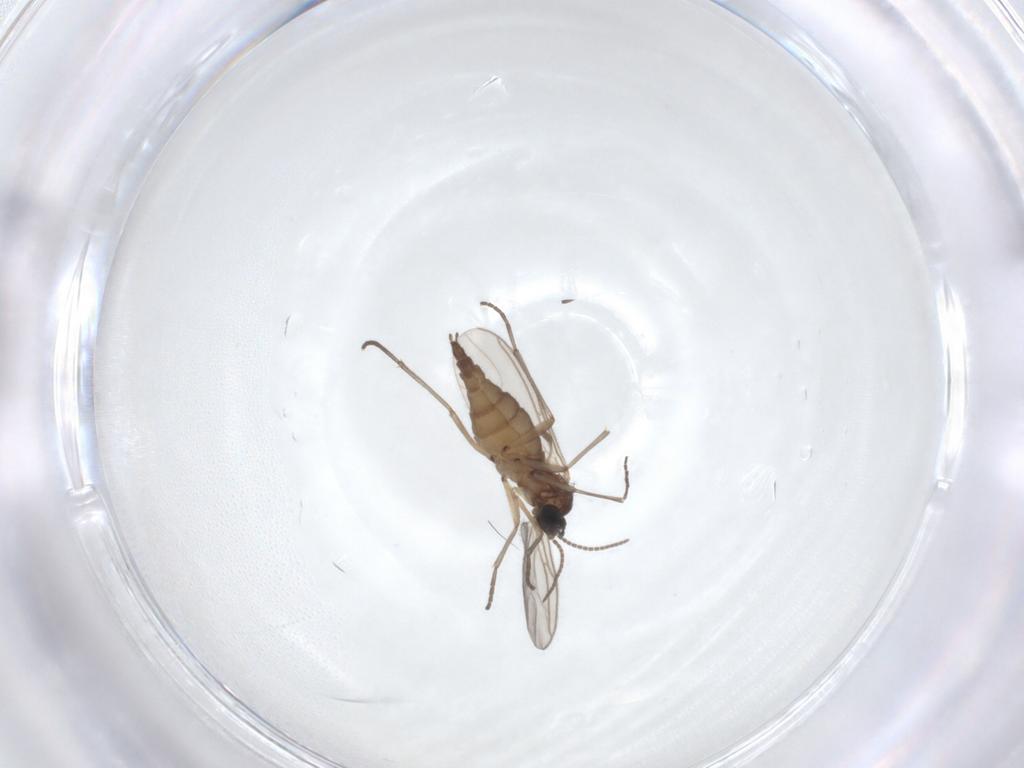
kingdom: Animalia
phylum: Arthropoda
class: Insecta
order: Diptera
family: Sciaridae
